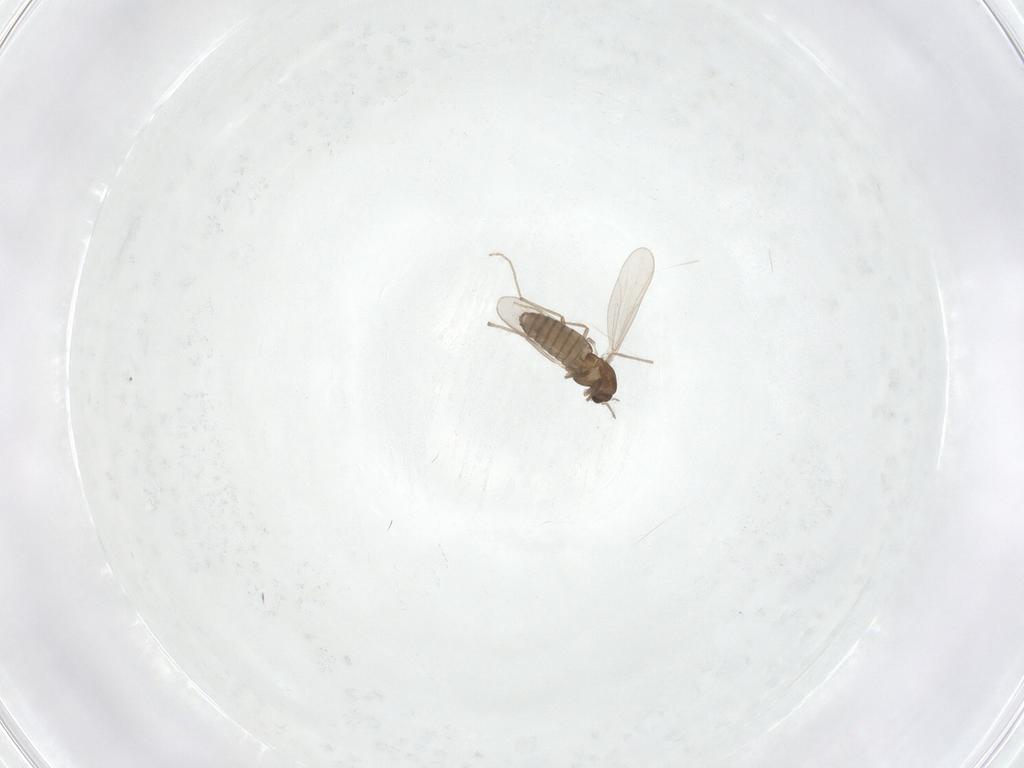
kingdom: Animalia
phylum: Arthropoda
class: Insecta
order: Diptera
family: Chironomidae
